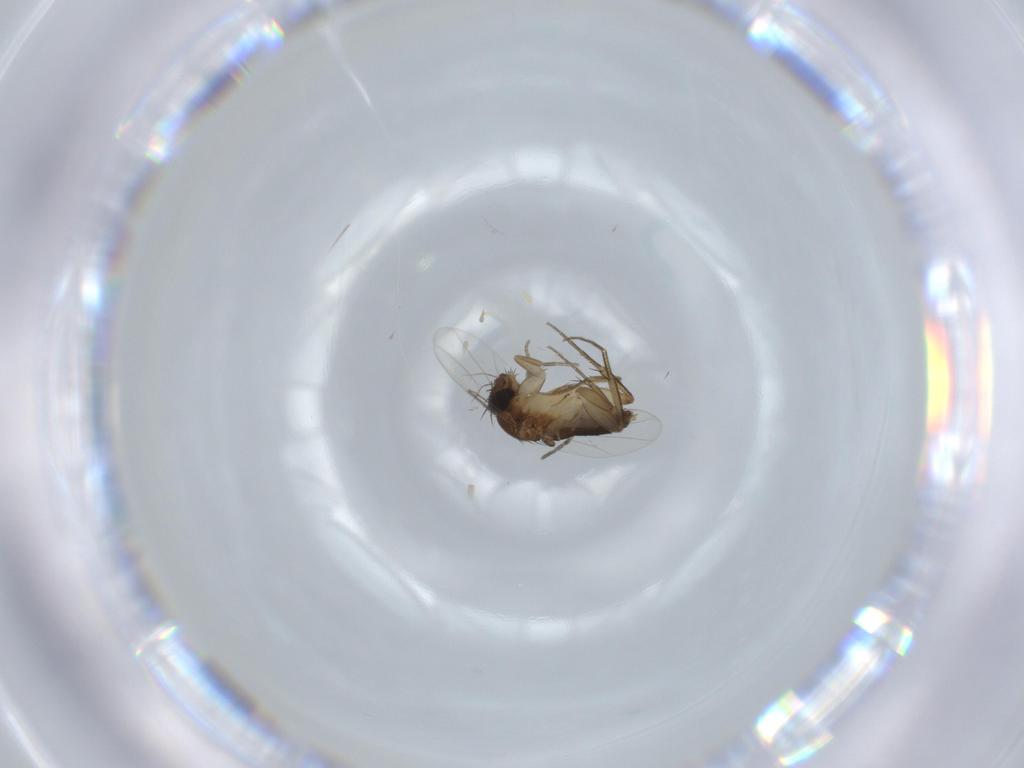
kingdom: Animalia
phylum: Arthropoda
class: Insecta
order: Diptera
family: Phoridae
